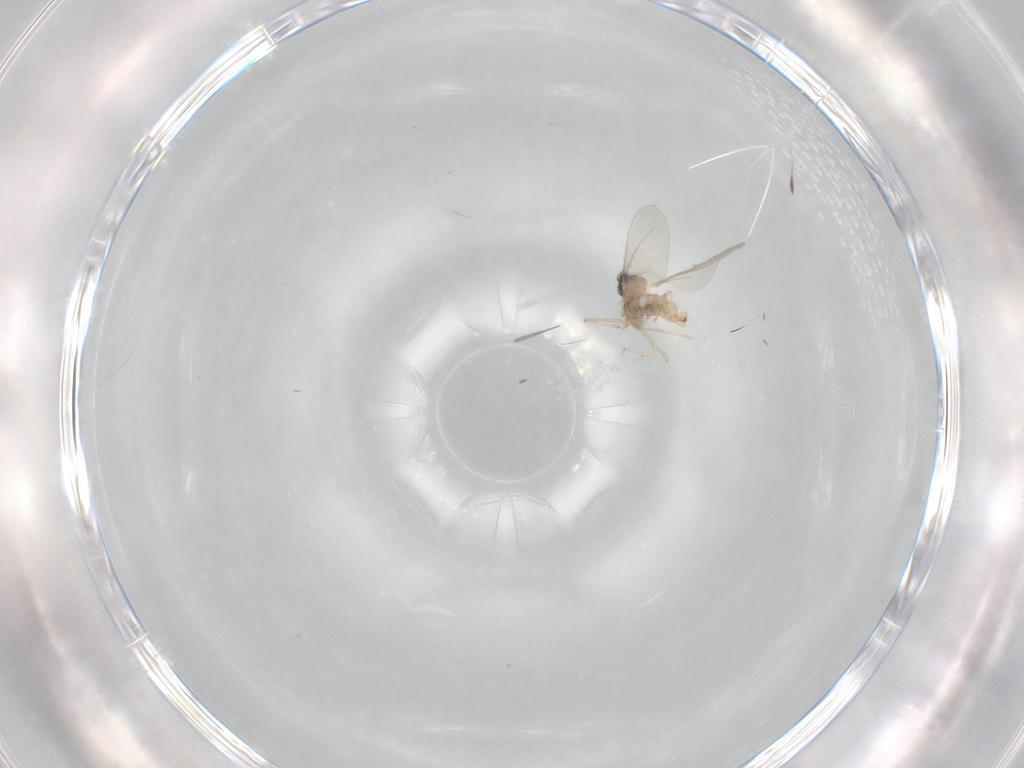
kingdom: Animalia
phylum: Arthropoda
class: Insecta
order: Diptera
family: Cecidomyiidae
